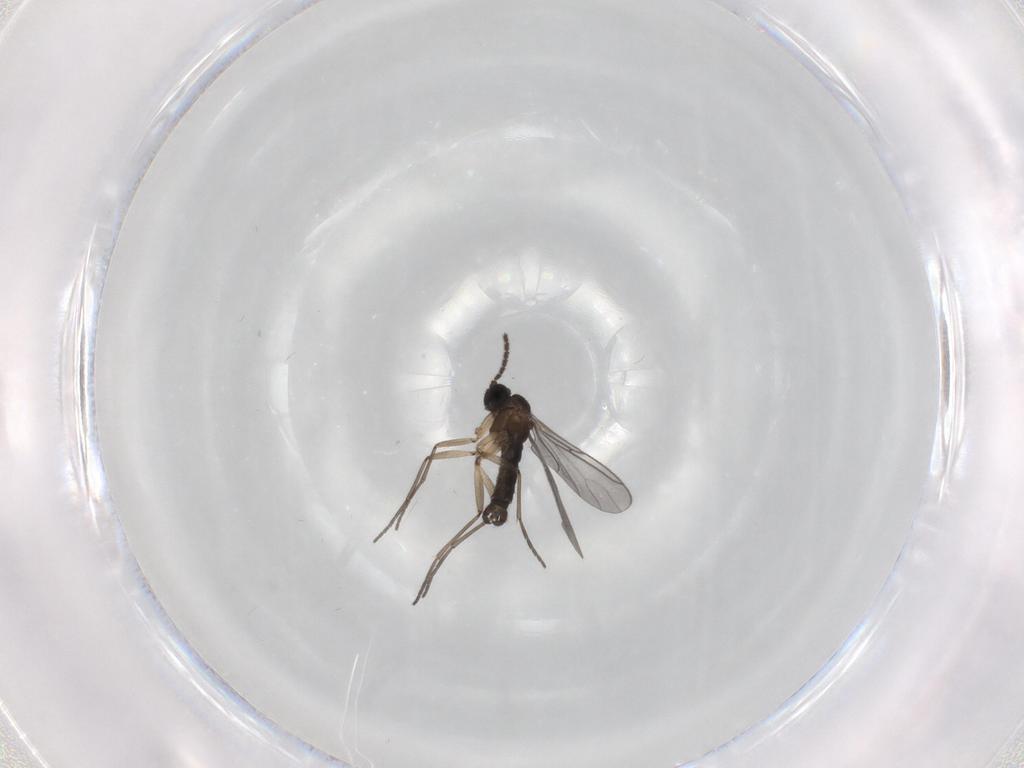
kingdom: Animalia
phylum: Arthropoda
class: Insecta
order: Diptera
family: Sciaridae
